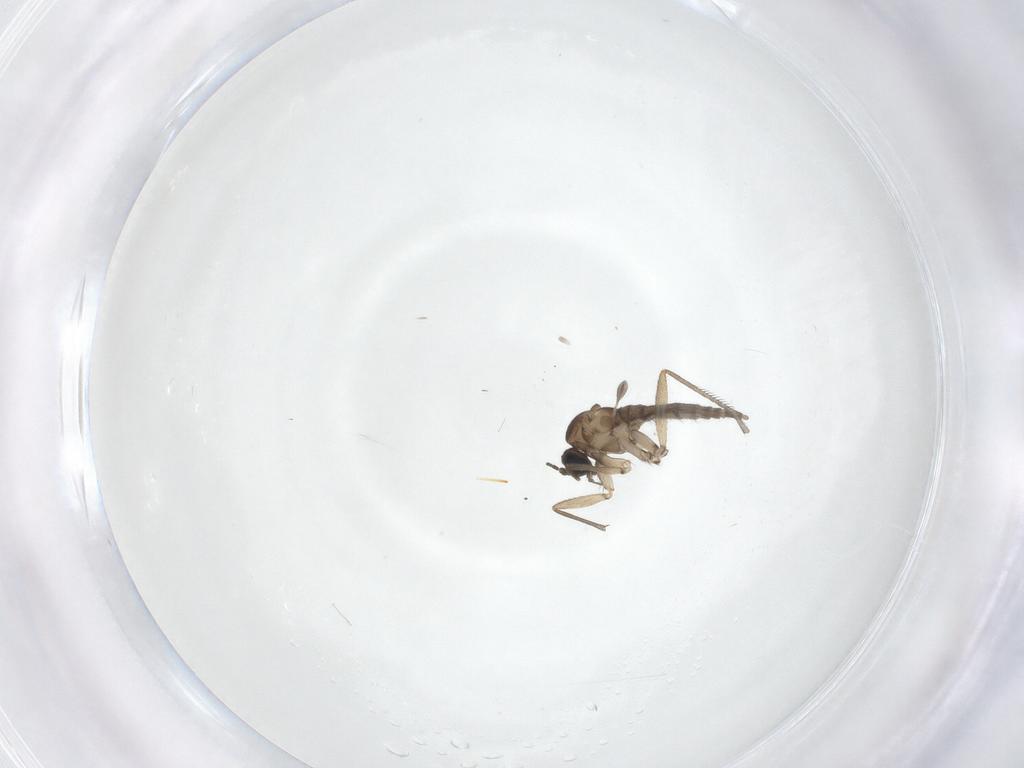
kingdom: Animalia
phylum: Arthropoda
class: Insecta
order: Diptera
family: Sciaridae
